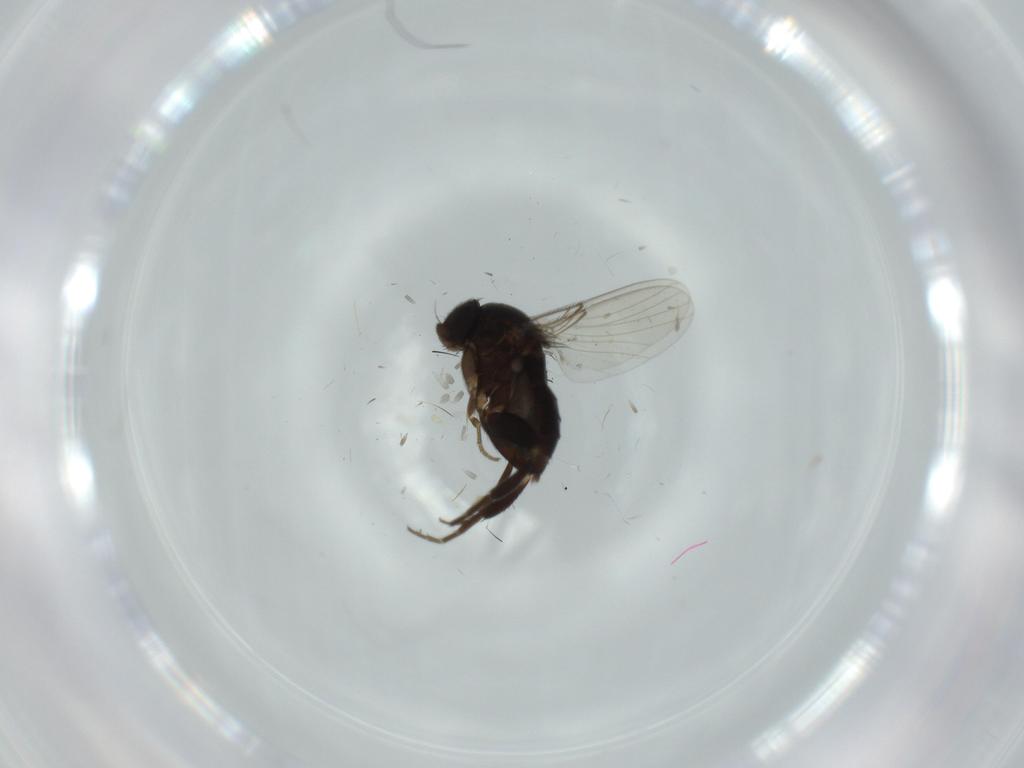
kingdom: Animalia
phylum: Arthropoda
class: Insecta
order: Diptera
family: Phoridae
